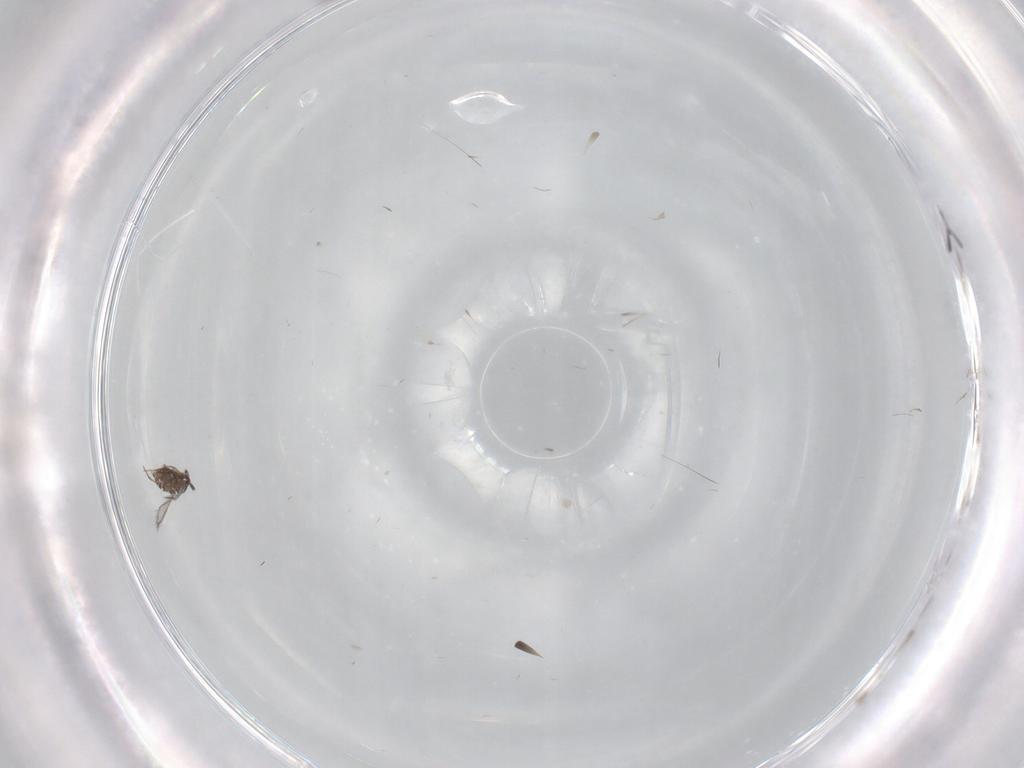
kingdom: Animalia
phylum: Arthropoda
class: Insecta
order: Hymenoptera
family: Mymaridae
